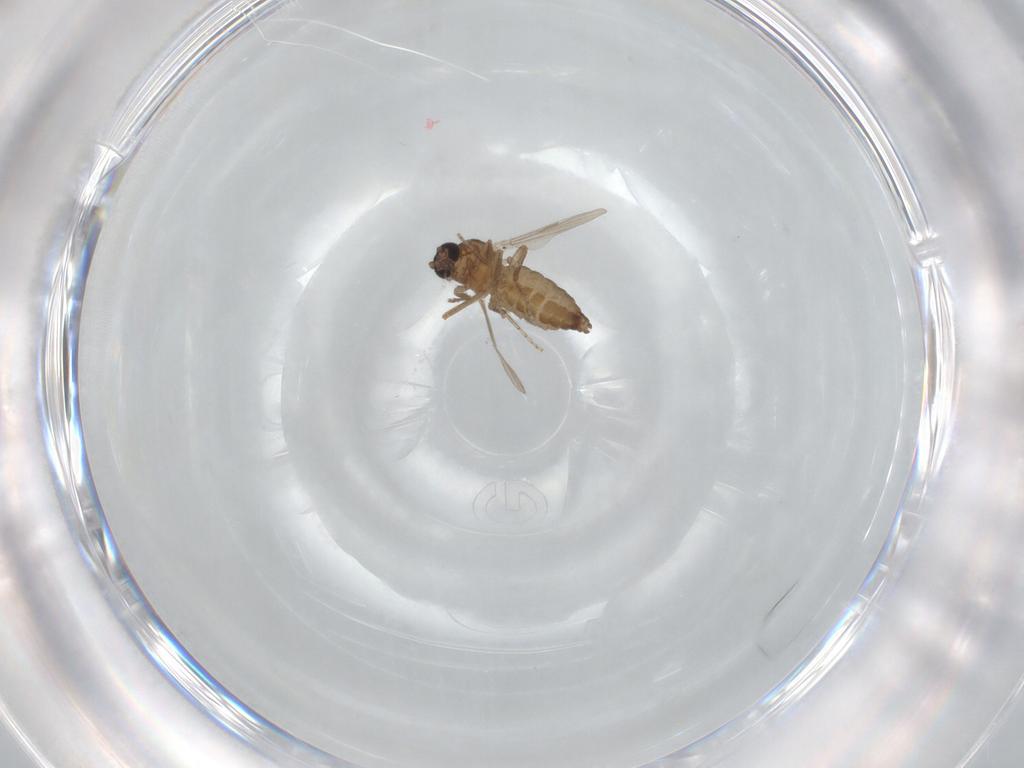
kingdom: Animalia
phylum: Arthropoda
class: Insecta
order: Diptera
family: Ceratopogonidae
